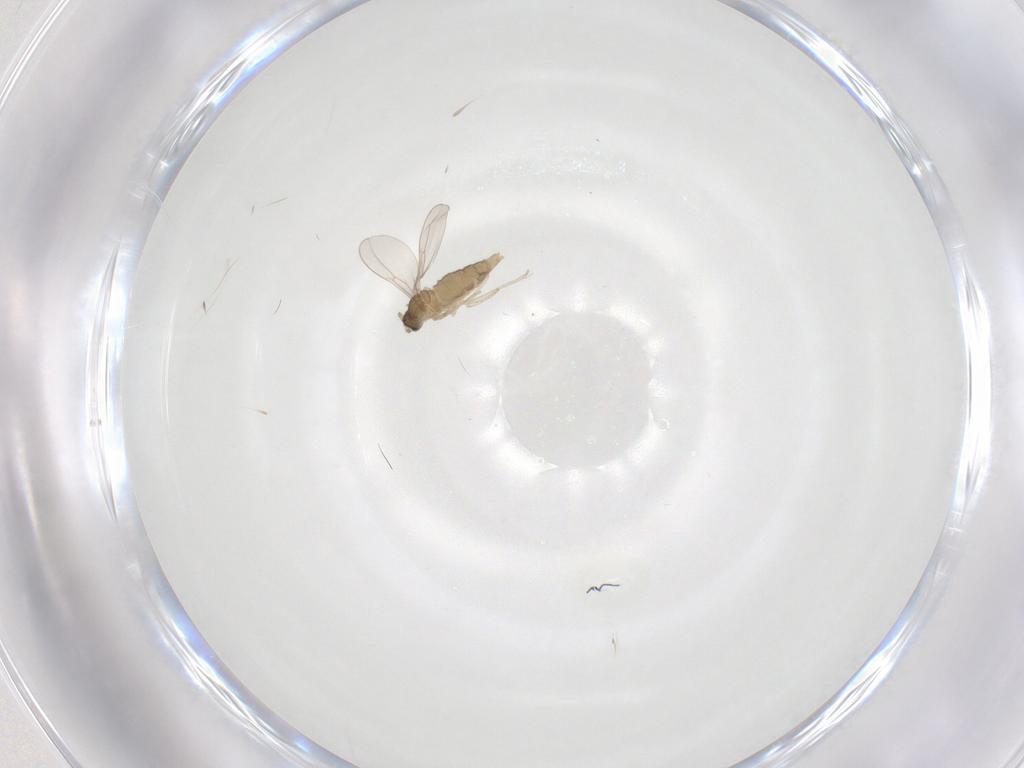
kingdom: Animalia
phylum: Arthropoda
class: Insecta
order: Diptera
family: Cecidomyiidae
